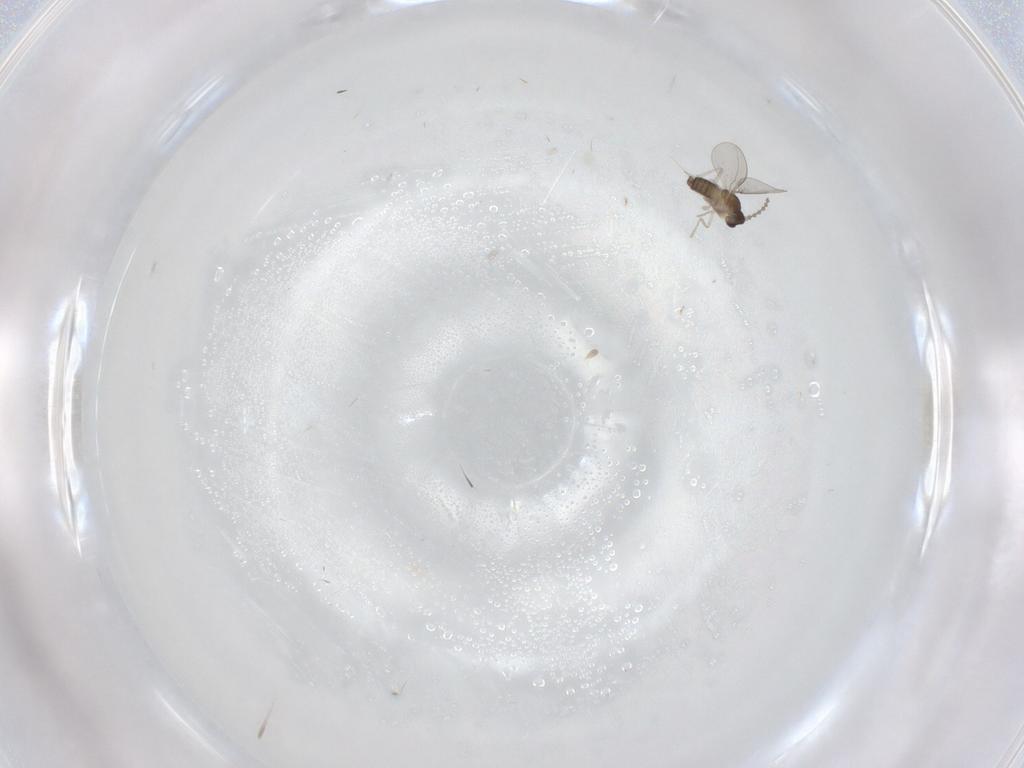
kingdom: Animalia
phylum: Arthropoda
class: Insecta
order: Diptera
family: Cecidomyiidae
